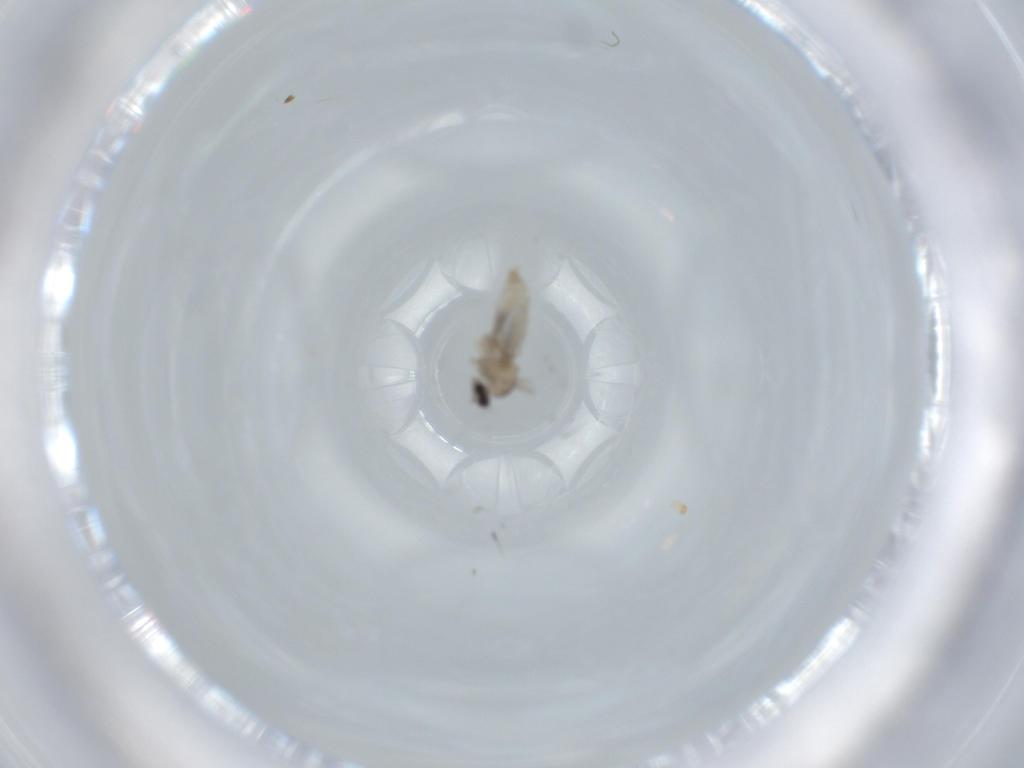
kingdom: Animalia
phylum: Arthropoda
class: Insecta
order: Diptera
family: Cecidomyiidae
